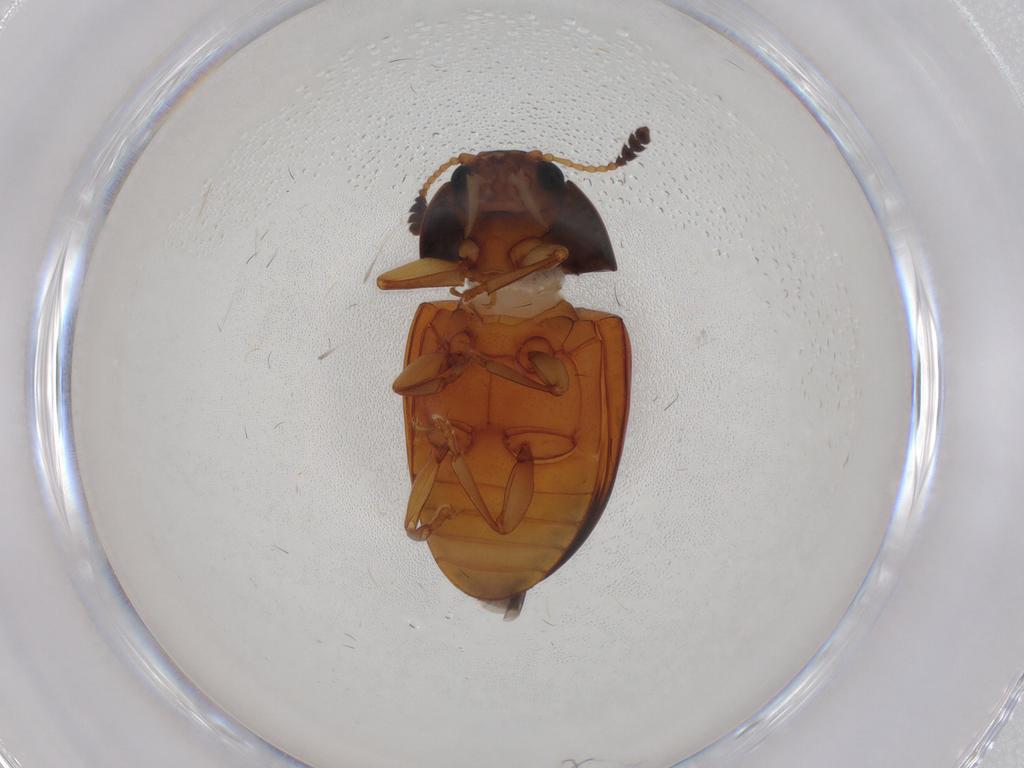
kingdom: Animalia
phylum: Arthropoda
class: Insecta
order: Coleoptera
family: Erotylidae
